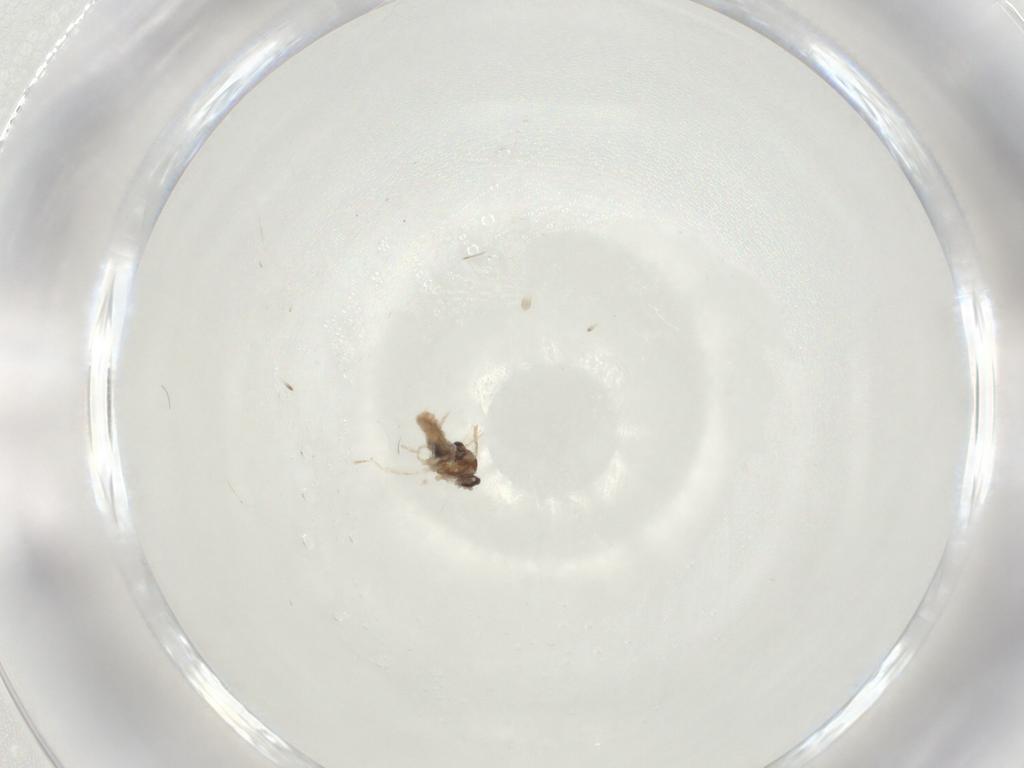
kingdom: Animalia
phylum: Arthropoda
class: Insecta
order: Diptera
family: Cecidomyiidae
